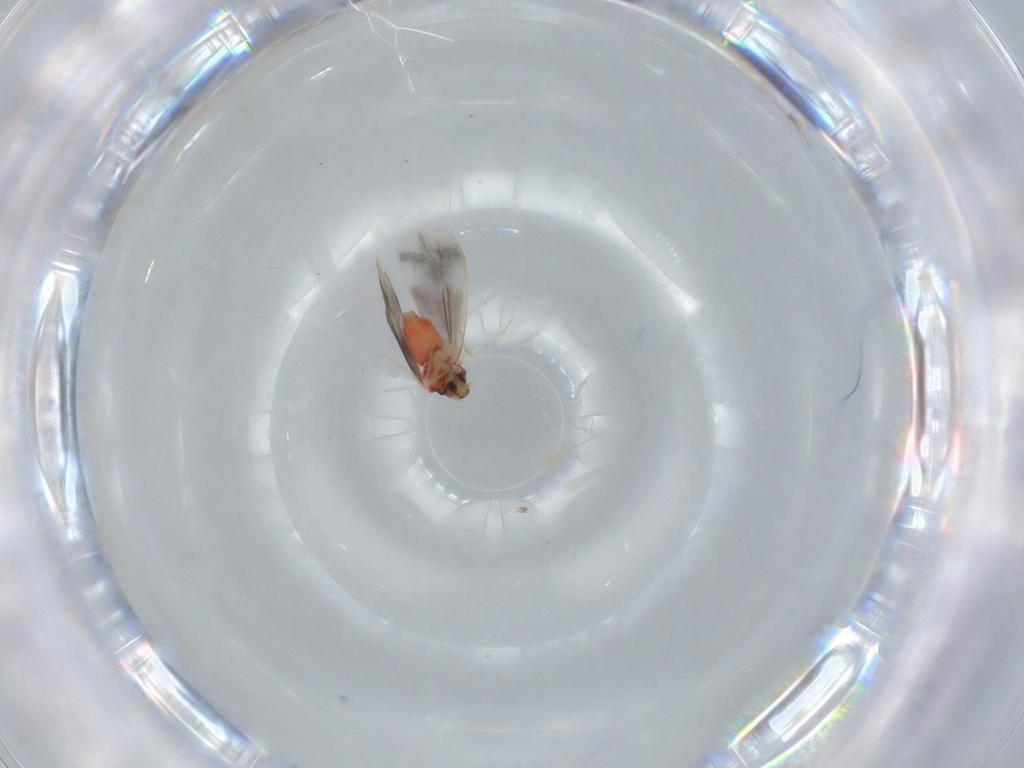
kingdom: Animalia
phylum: Arthropoda
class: Insecta
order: Hemiptera
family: Aleyrodidae
